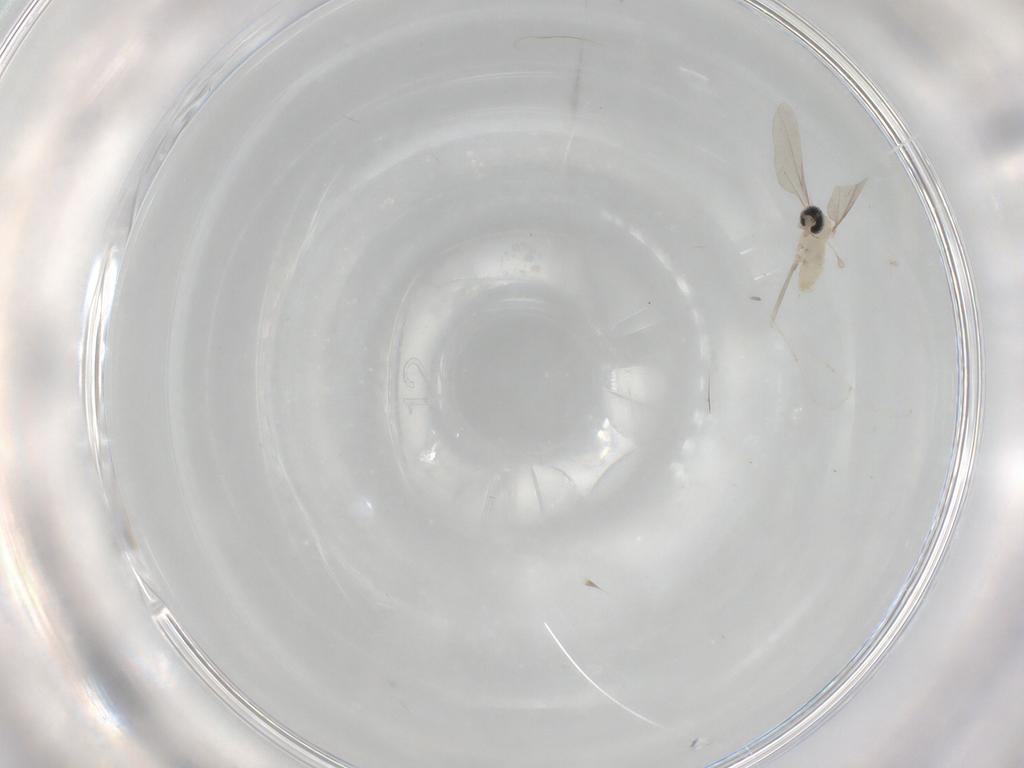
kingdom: Animalia
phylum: Arthropoda
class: Insecta
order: Diptera
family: Cecidomyiidae
